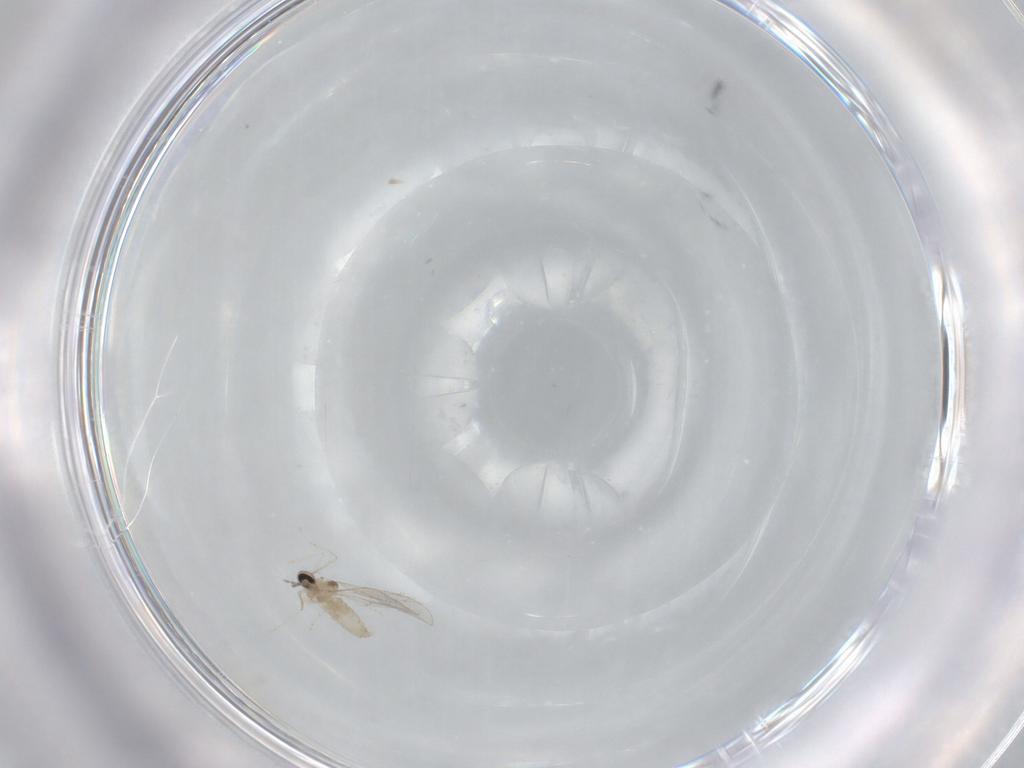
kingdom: Animalia
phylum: Arthropoda
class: Insecta
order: Diptera
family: Cecidomyiidae
